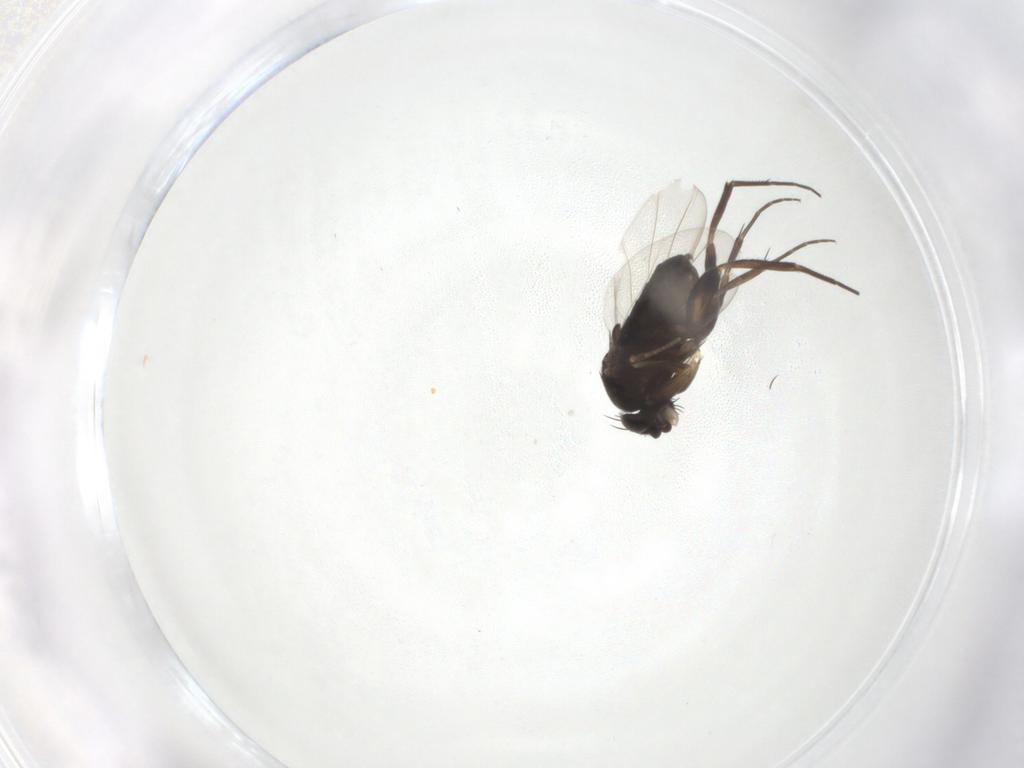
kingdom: Animalia
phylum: Arthropoda
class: Insecta
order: Diptera
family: Phoridae
